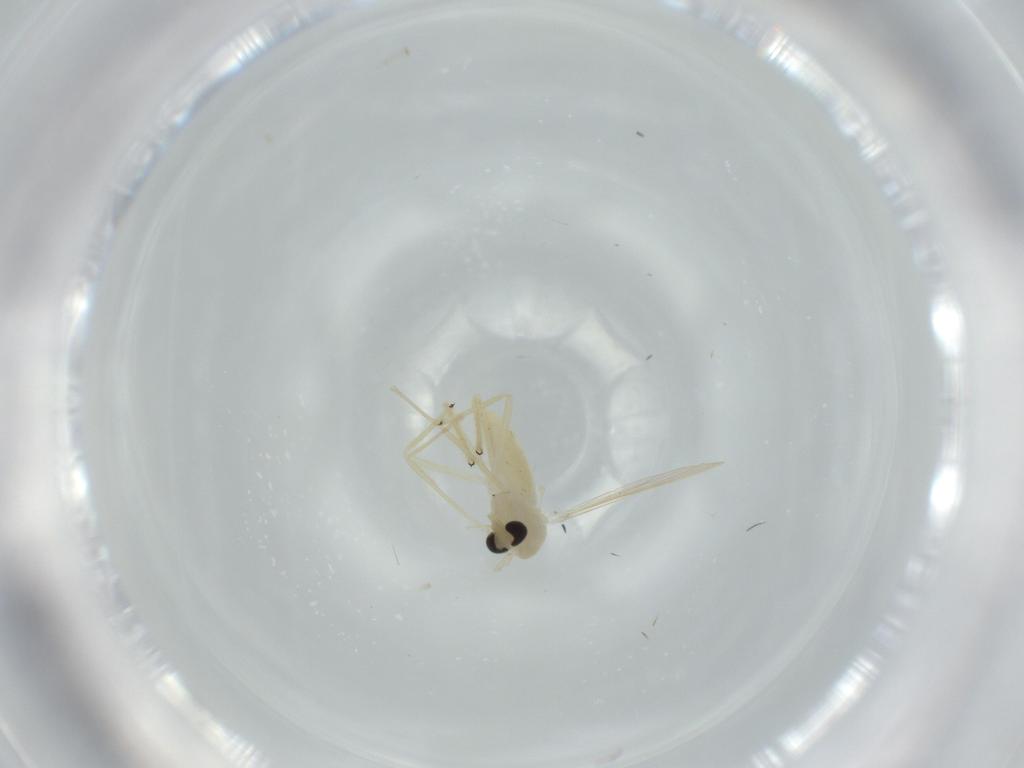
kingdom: Animalia
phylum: Arthropoda
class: Insecta
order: Diptera
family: Chironomidae
